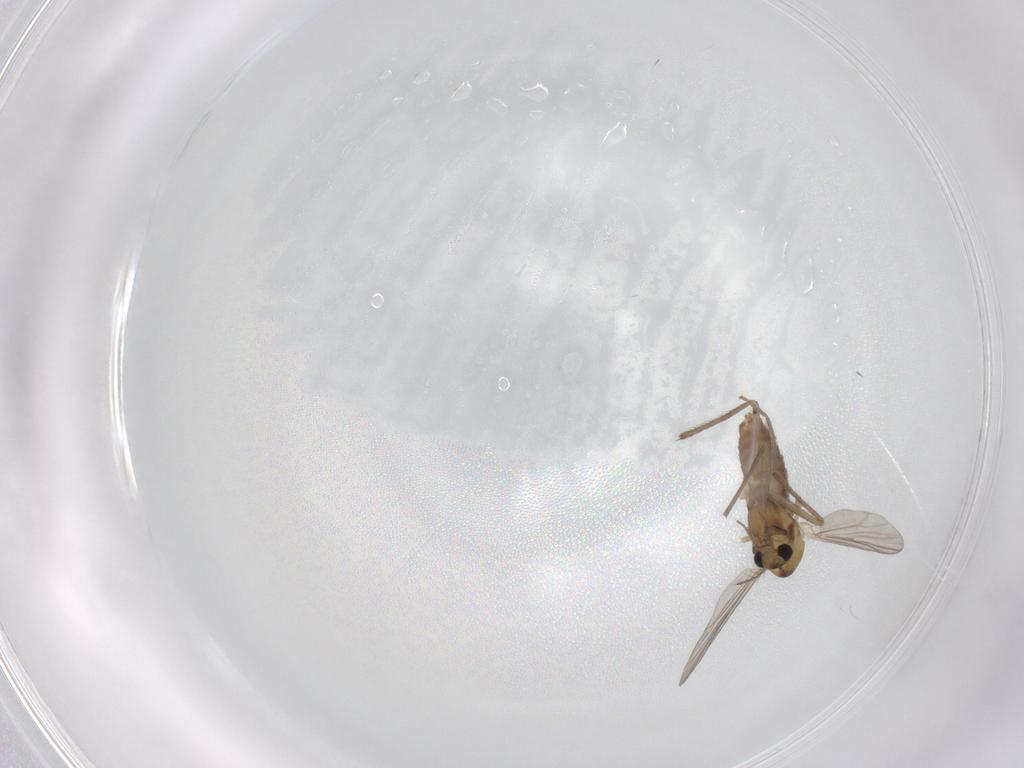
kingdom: Animalia
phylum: Arthropoda
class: Insecta
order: Diptera
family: Chironomidae
